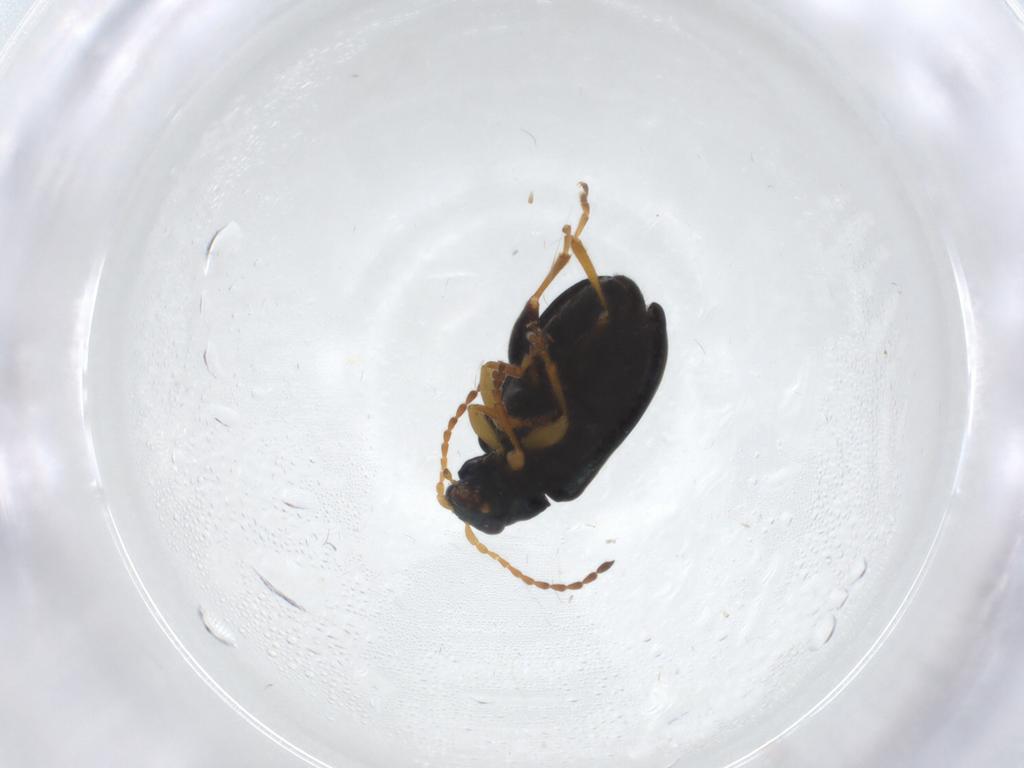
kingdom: Animalia
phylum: Arthropoda
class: Insecta
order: Coleoptera
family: Chrysomelidae
